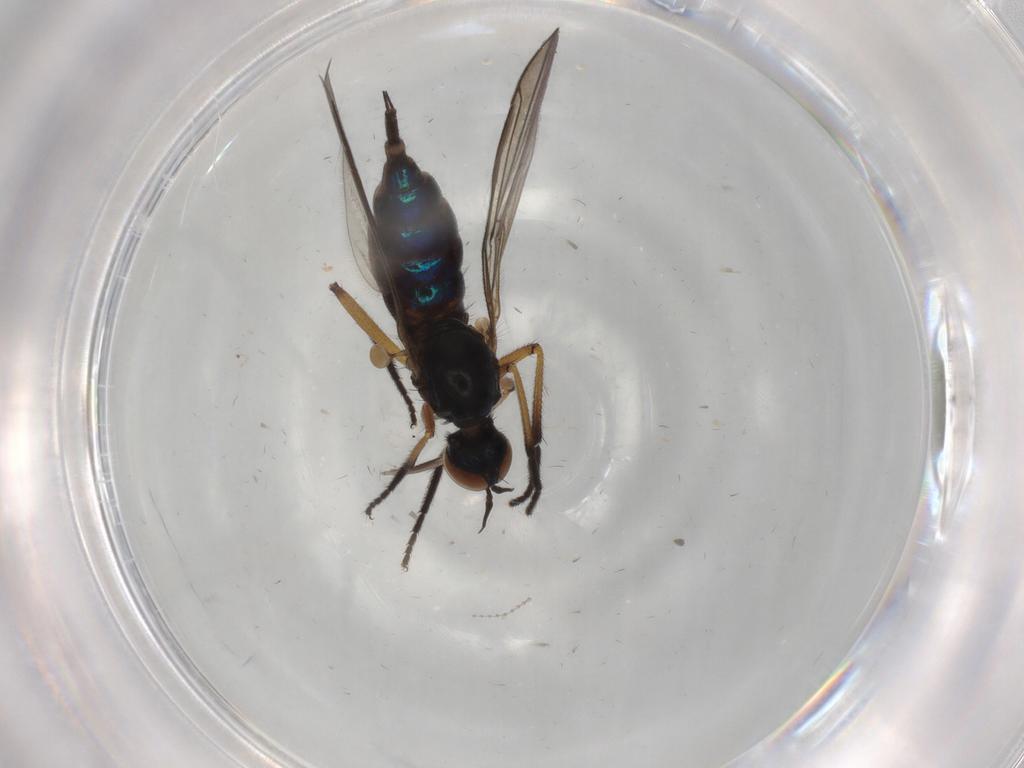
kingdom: Animalia
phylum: Arthropoda
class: Insecta
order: Diptera
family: Empididae
